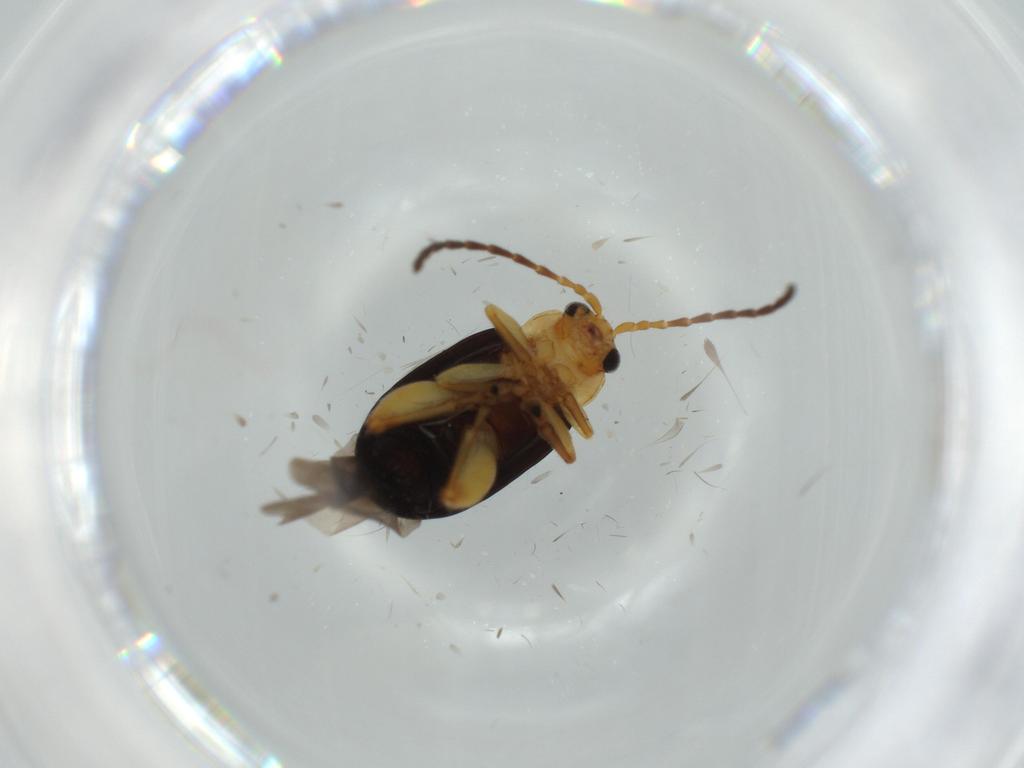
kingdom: Animalia
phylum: Arthropoda
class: Insecta
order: Coleoptera
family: Chrysomelidae
